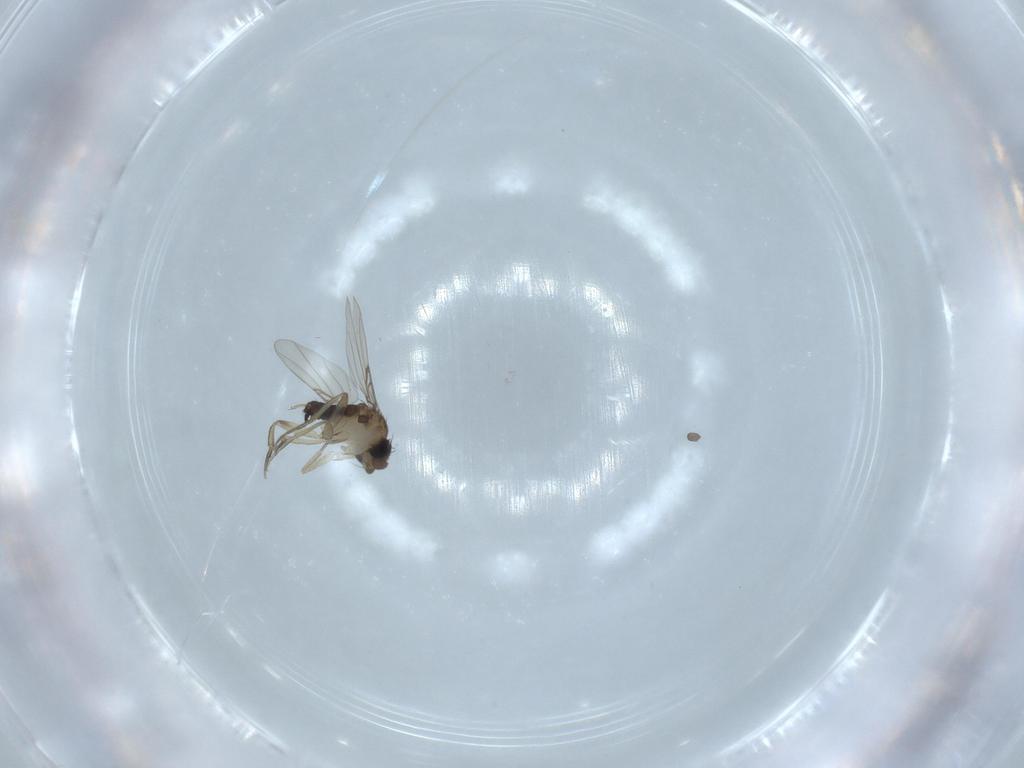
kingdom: Animalia
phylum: Arthropoda
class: Insecta
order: Diptera
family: Phoridae
